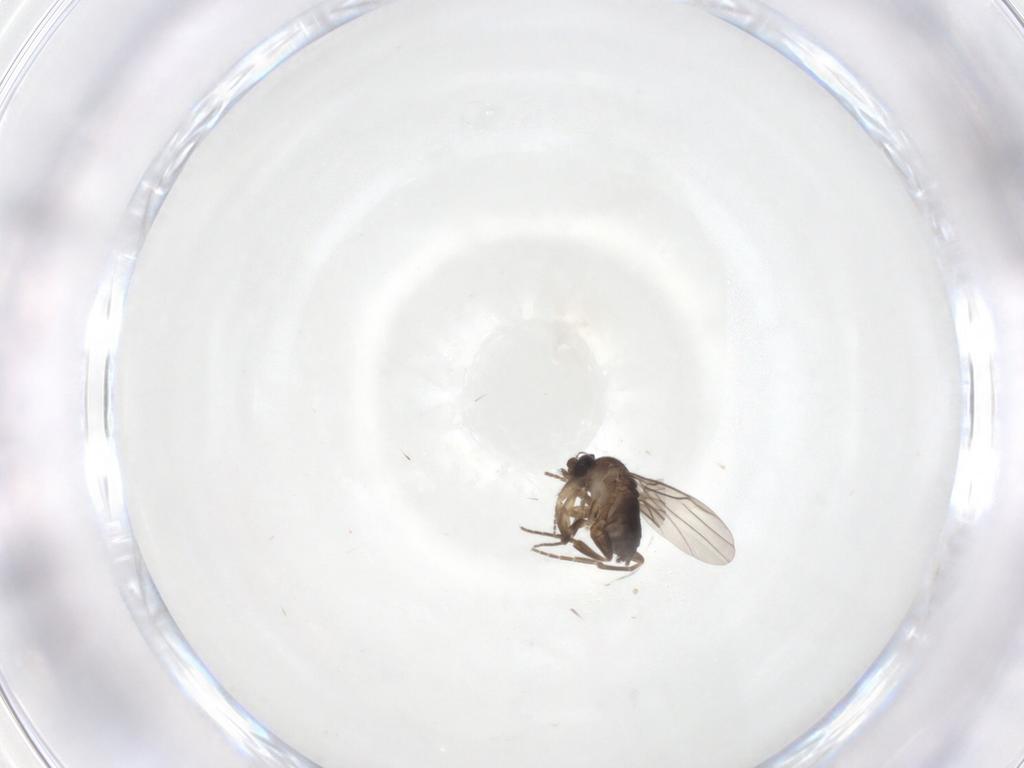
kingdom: Animalia
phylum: Arthropoda
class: Insecta
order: Diptera
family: Phoridae
